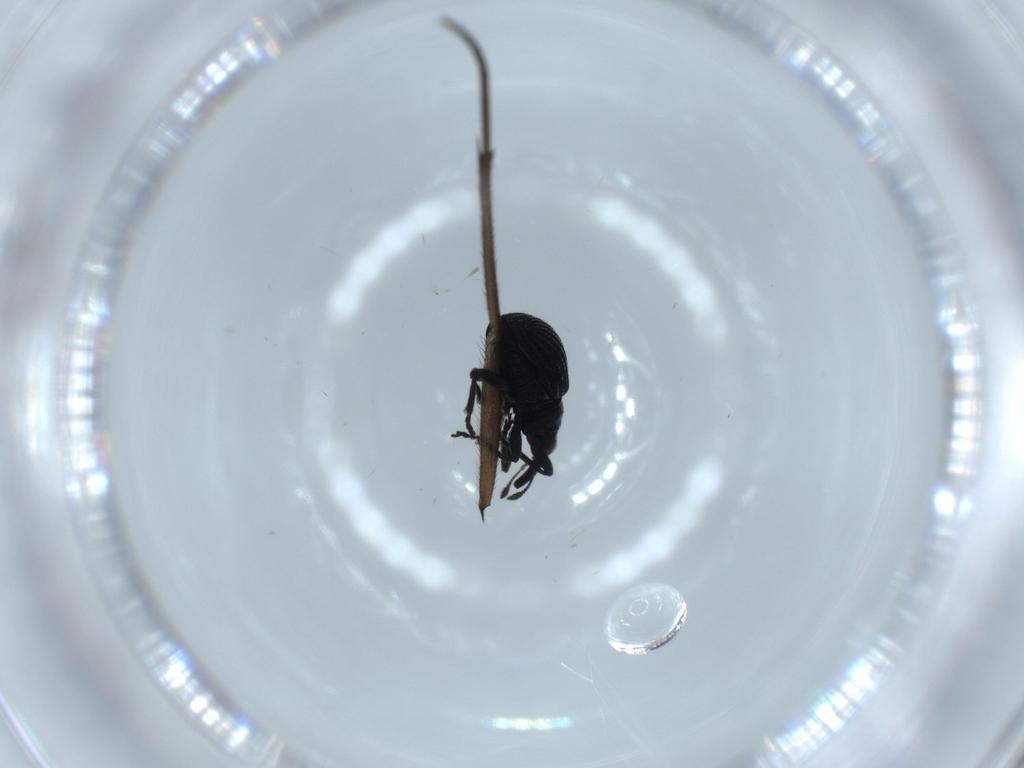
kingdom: Animalia
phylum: Arthropoda
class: Insecta
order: Coleoptera
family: Brentidae
